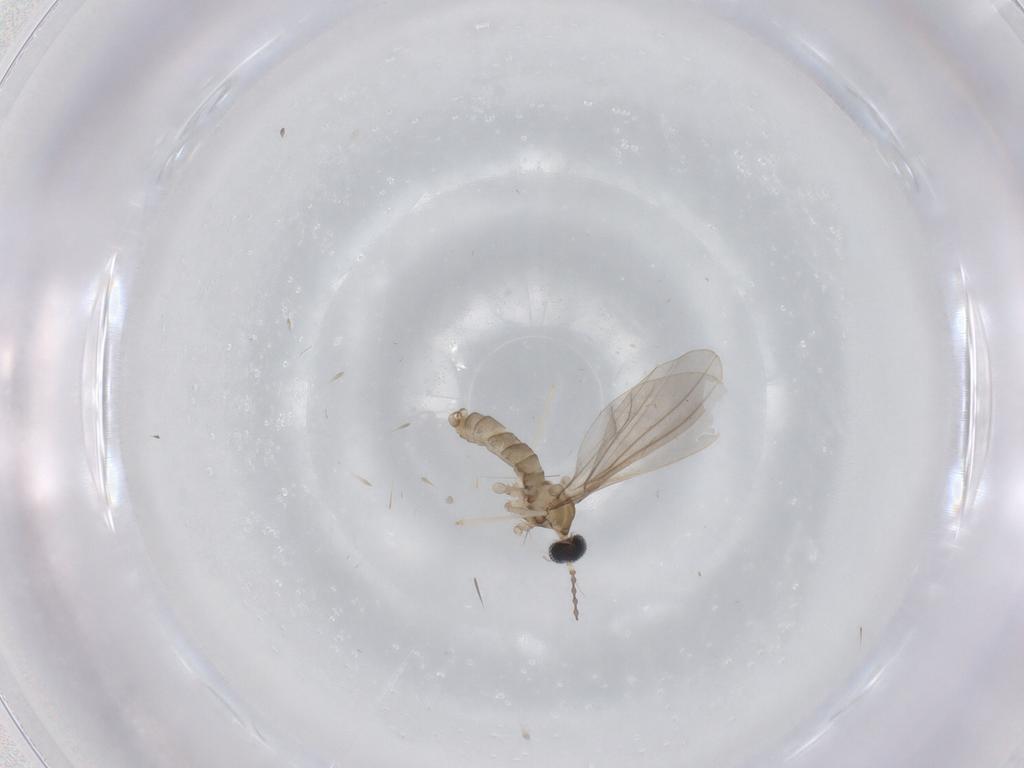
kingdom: Animalia
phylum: Arthropoda
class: Insecta
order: Diptera
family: Cecidomyiidae
